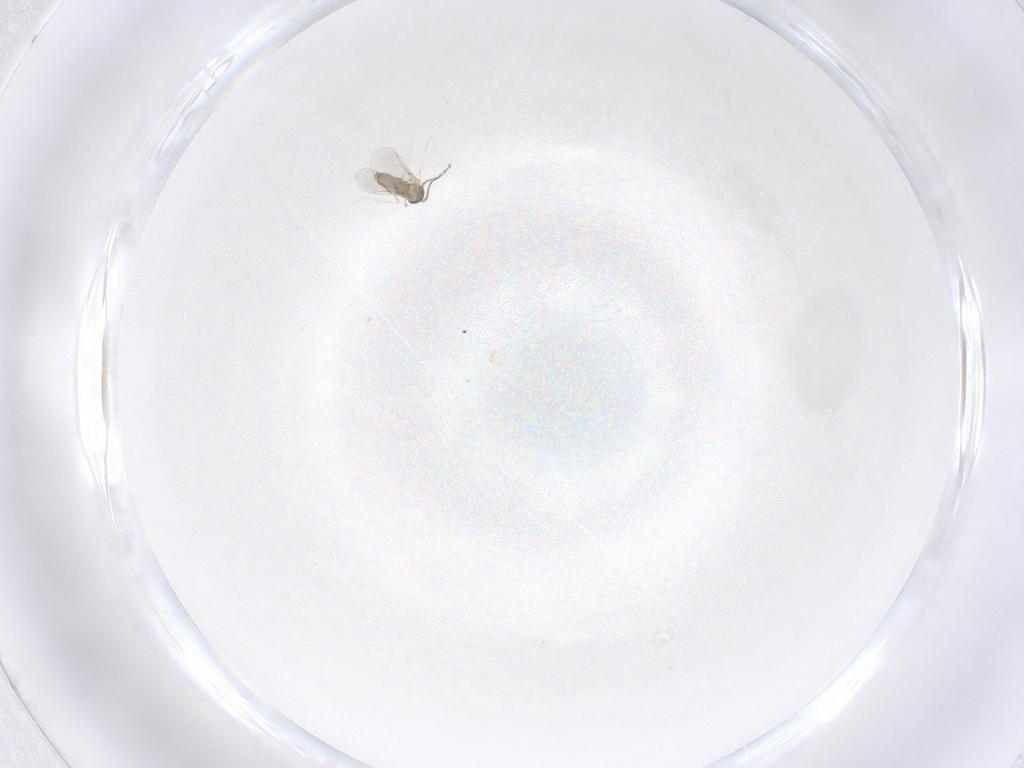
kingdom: Animalia
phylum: Arthropoda
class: Insecta
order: Diptera
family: Cecidomyiidae
